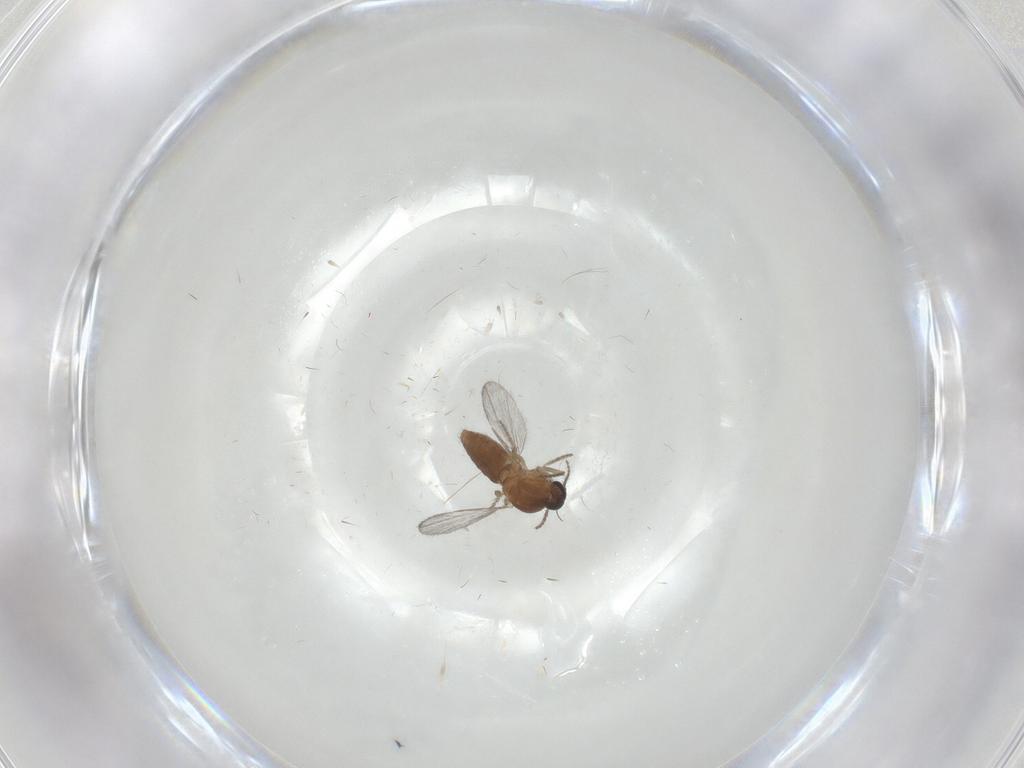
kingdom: Animalia
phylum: Arthropoda
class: Insecta
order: Diptera
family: Ceratopogonidae
